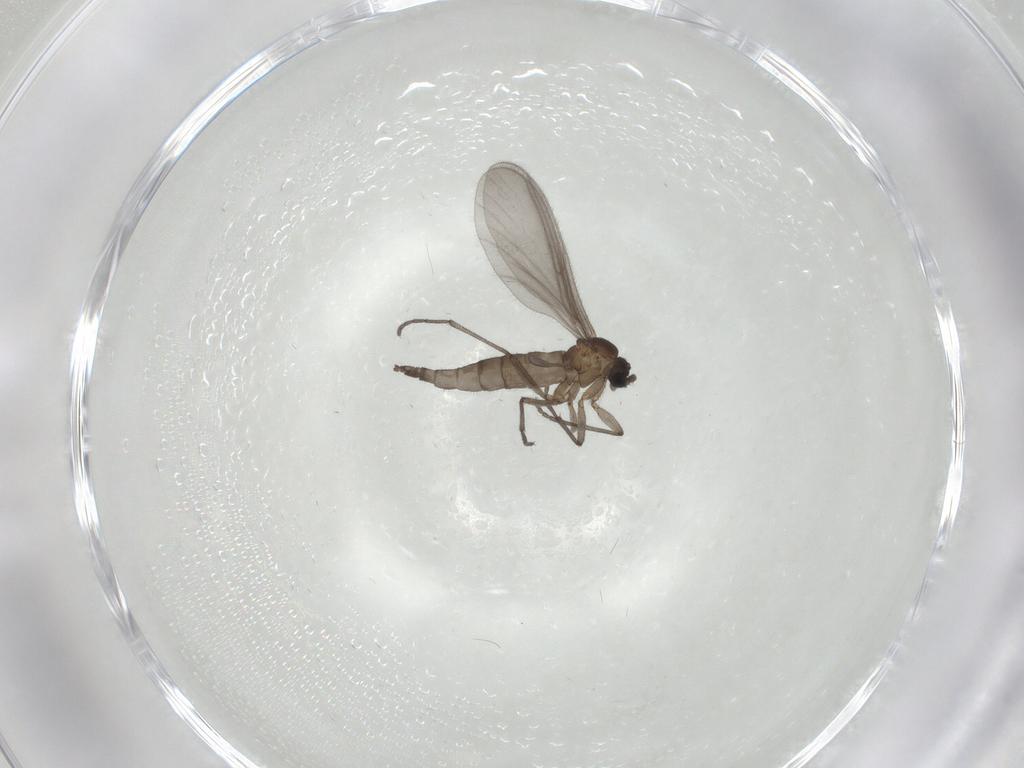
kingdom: Animalia
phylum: Arthropoda
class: Insecta
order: Diptera
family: Sciaridae
